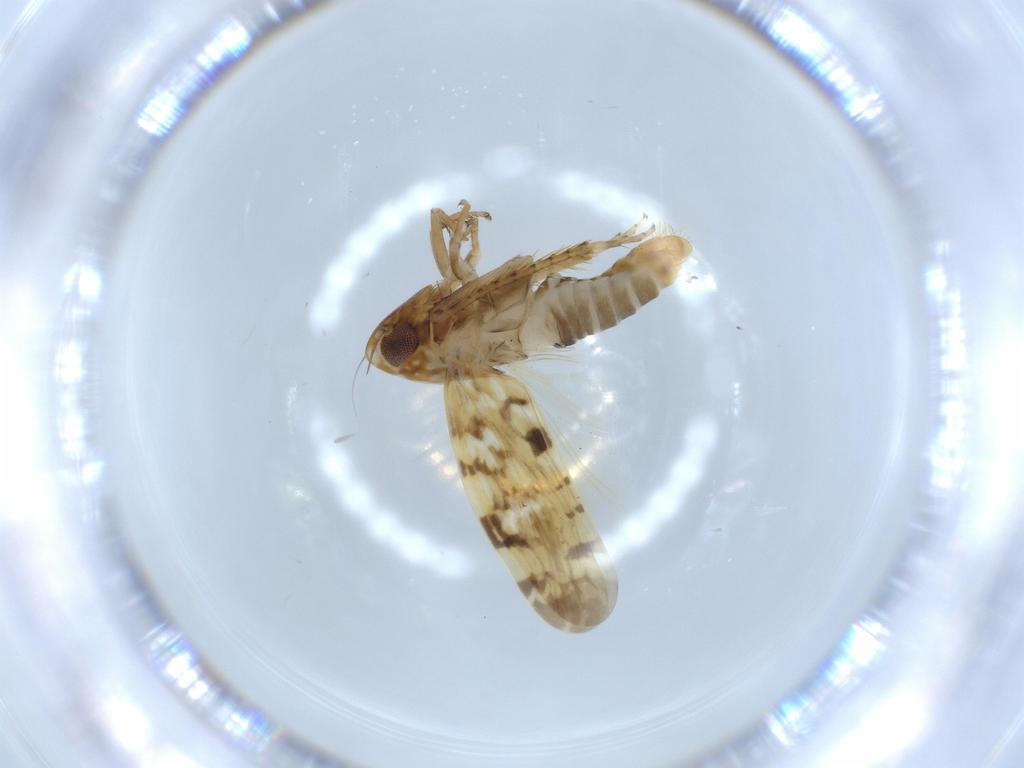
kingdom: Animalia
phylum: Arthropoda
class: Insecta
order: Hemiptera
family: Cicadellidae
